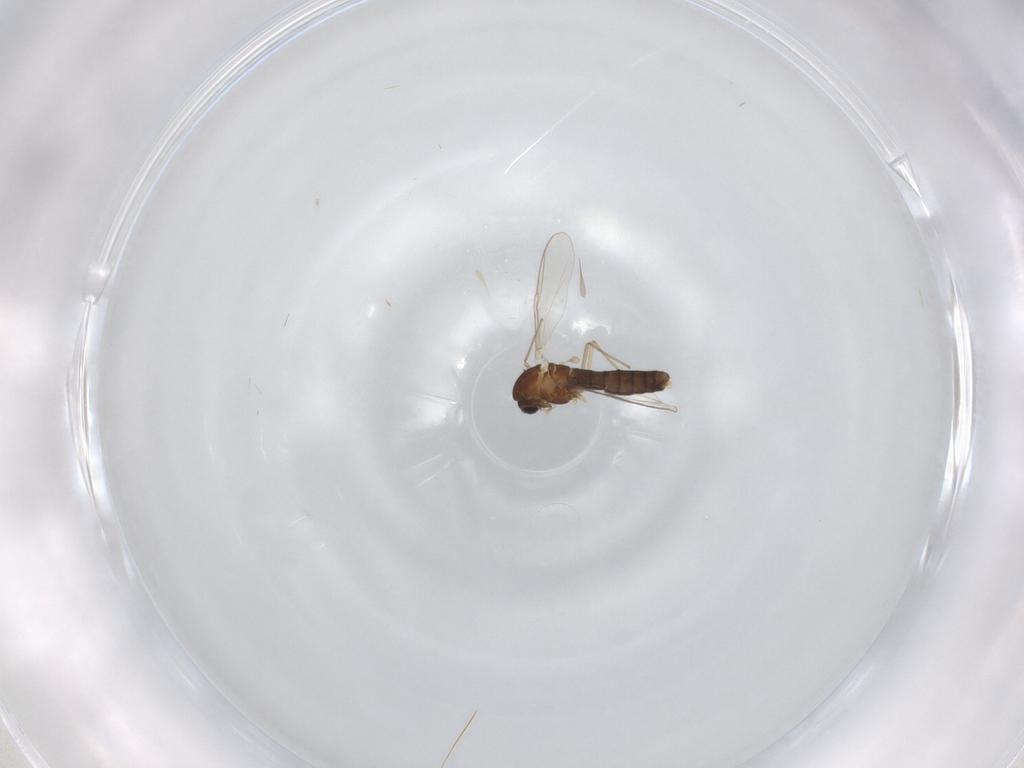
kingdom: Animalia
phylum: Arthropoda
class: Insecta
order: Diptera
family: Chironomidae
